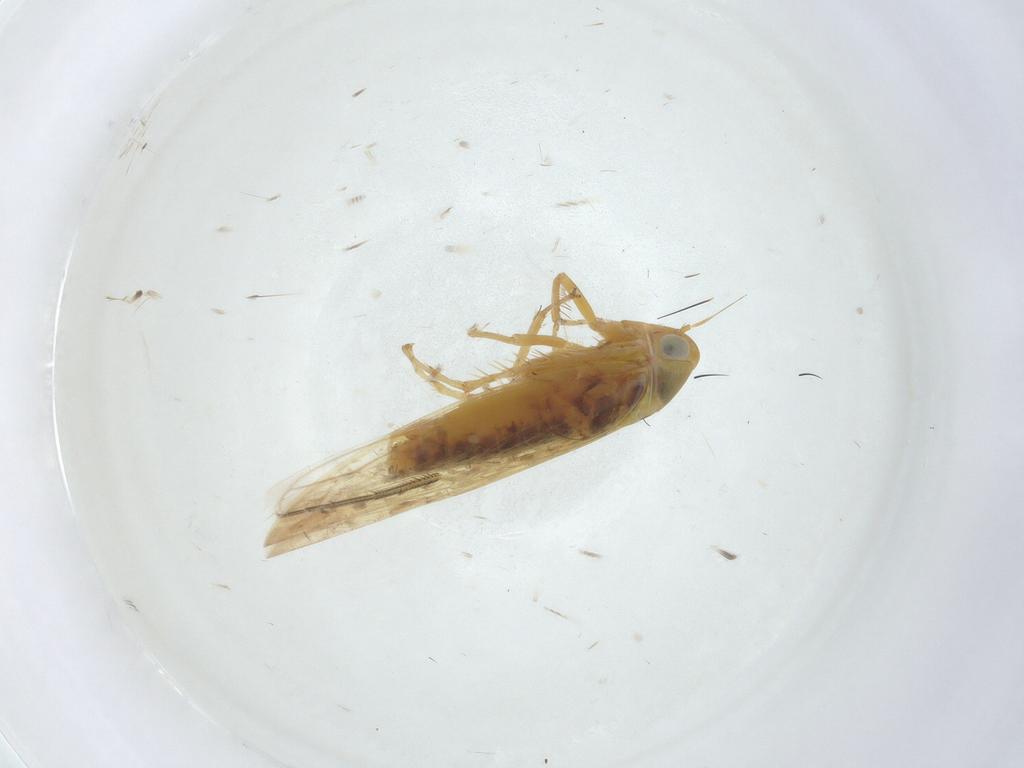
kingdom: Animalia
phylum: Arthropoda
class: Insecta
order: Hemiptera
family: Cicadellidae
